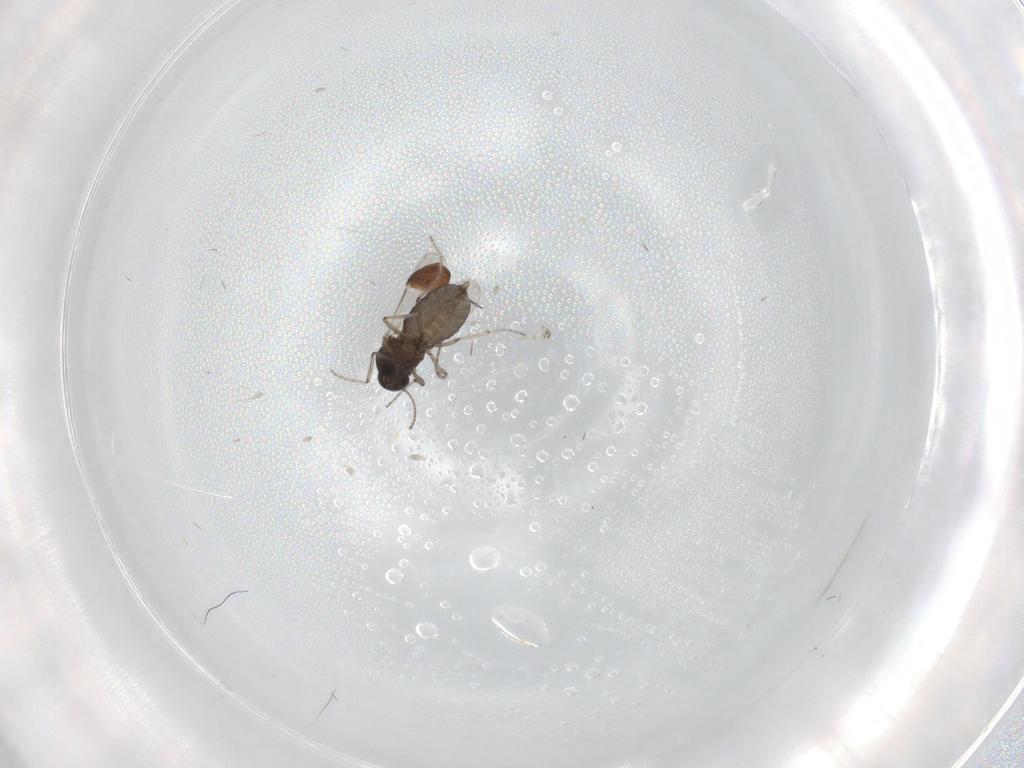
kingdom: Animalia
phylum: Arthropoda
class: Insecta
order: Diptera
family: Ceratopogonidae
